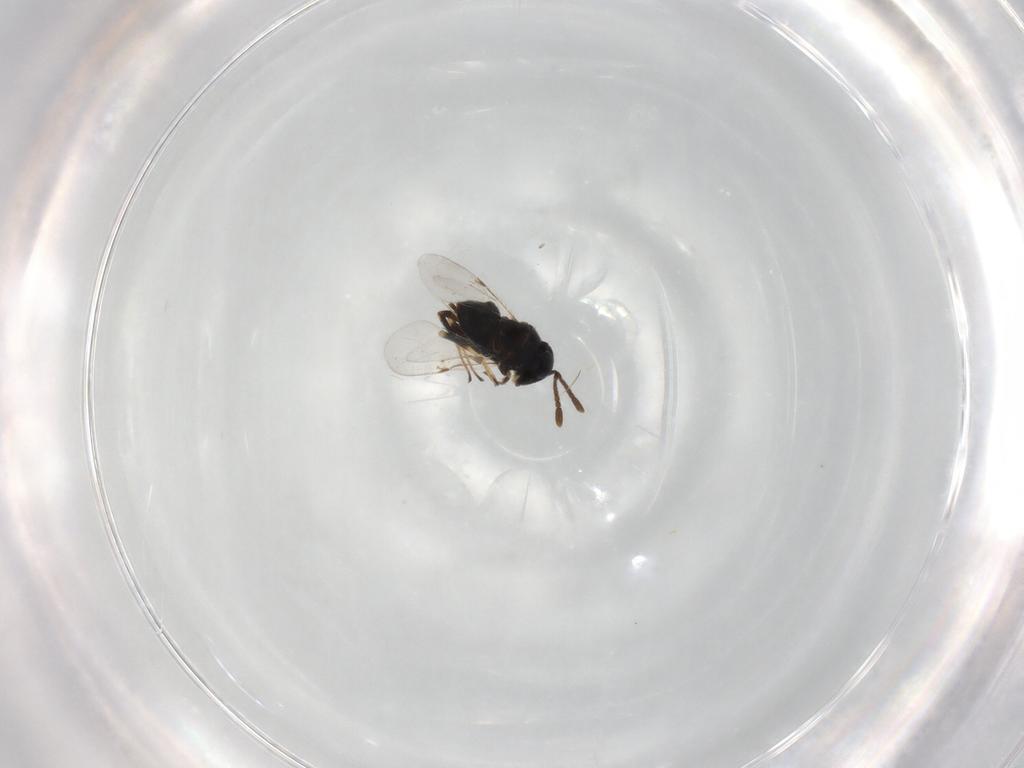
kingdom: Animalia
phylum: Arthropoda
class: Insecta
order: Hymenoptera
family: Encyrtidae
